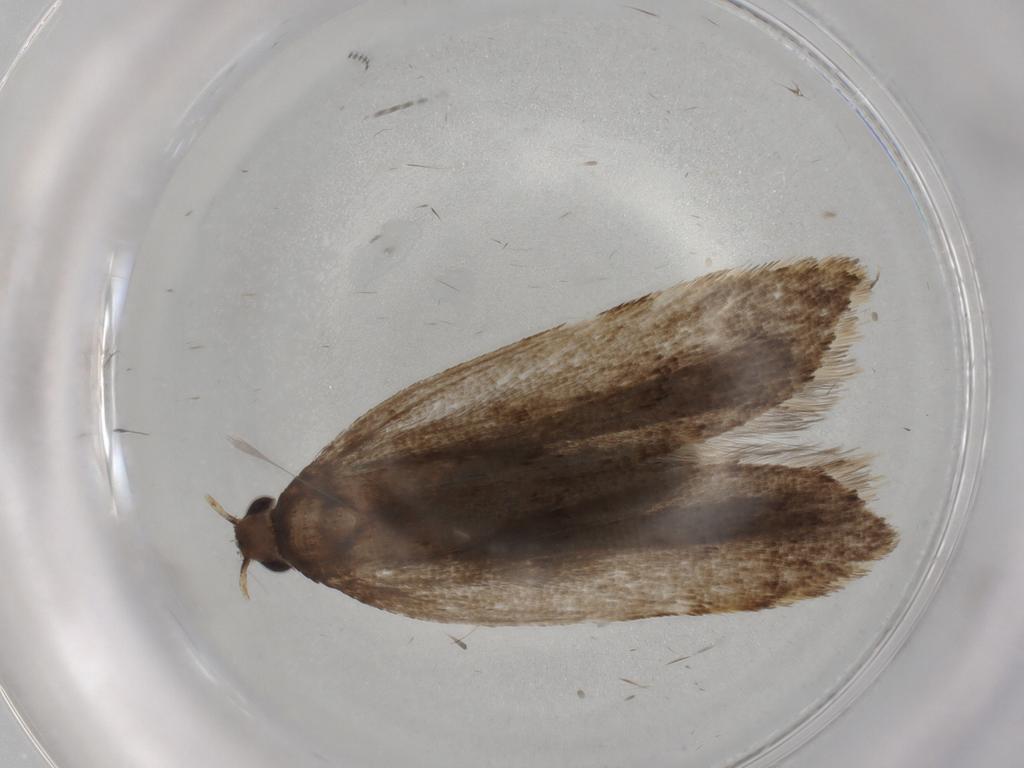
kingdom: Animalia
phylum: Arthropoda
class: Insecta
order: Lepidoptera
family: Gelechiidae
